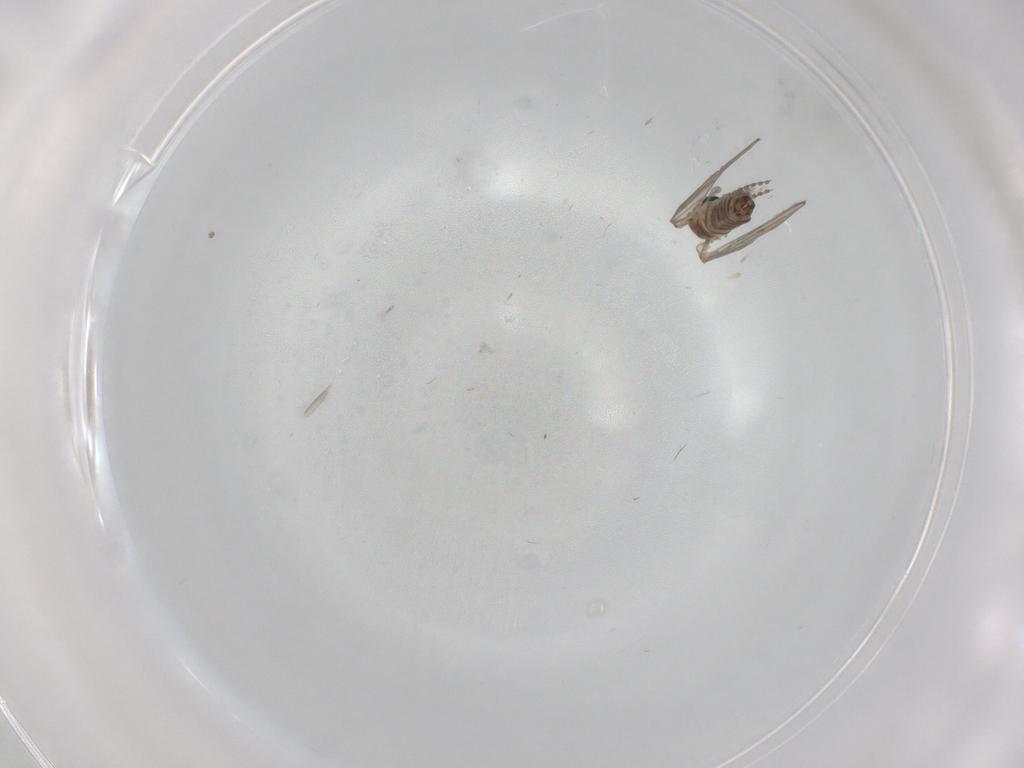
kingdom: Animalia
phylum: Arthropoda
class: Insecta
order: Diptera
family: Psychodidae
